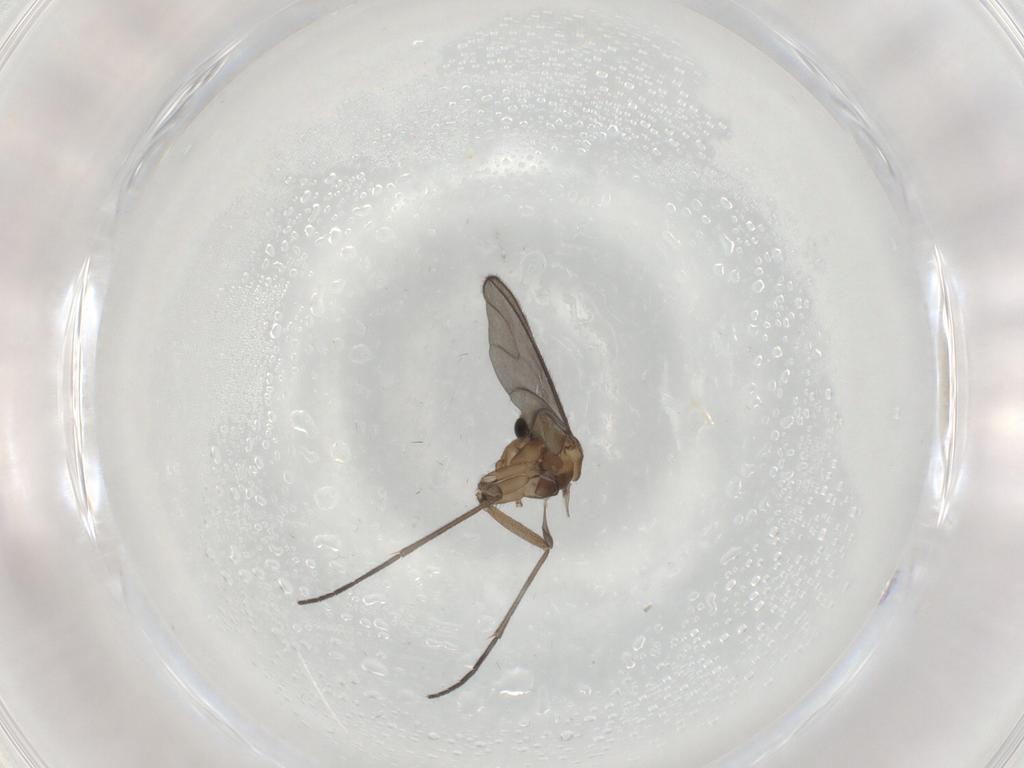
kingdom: Animalia
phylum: Arthropoda
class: Insecta
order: Diptera
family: Sciaridae
